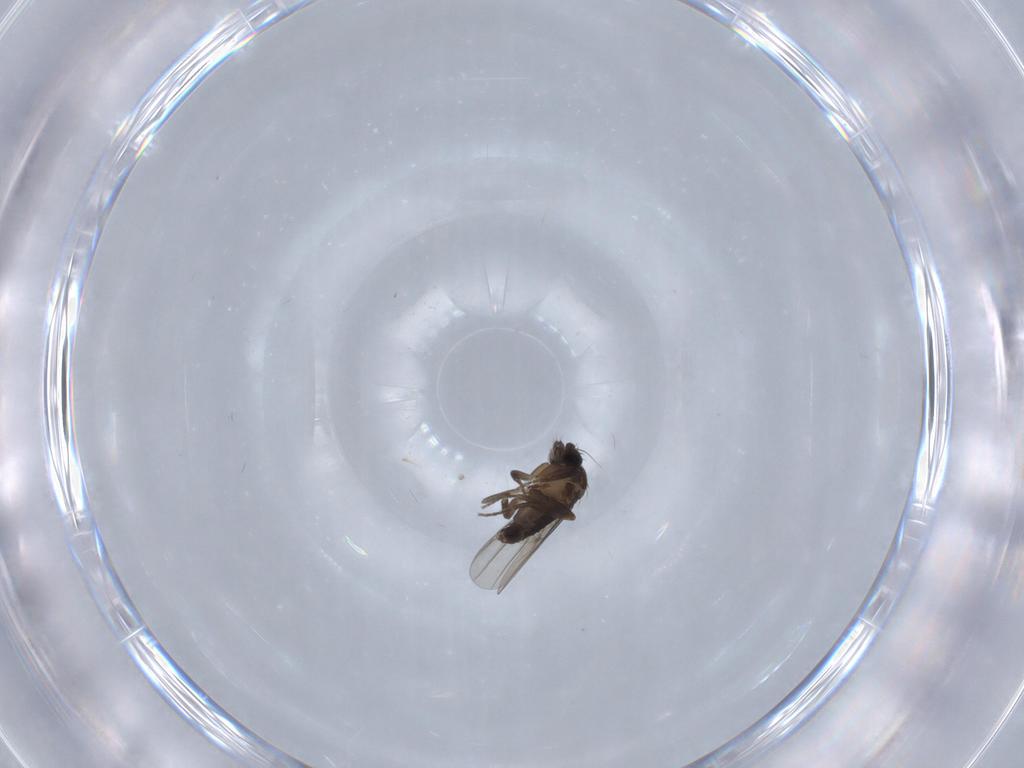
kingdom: Animalia
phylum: Arthropoda
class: Insecta
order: Diptera
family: Phoridae
